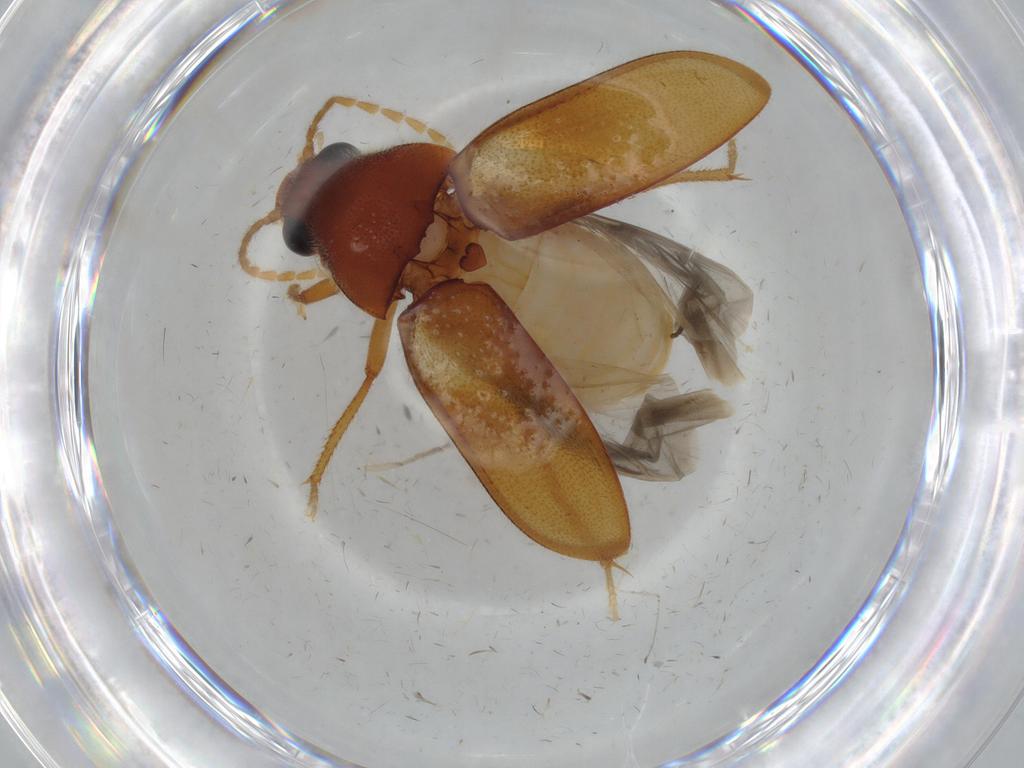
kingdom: Animalia
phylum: Arthropoda
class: Insecta
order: Coleoptera
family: Ptilodactylidae
